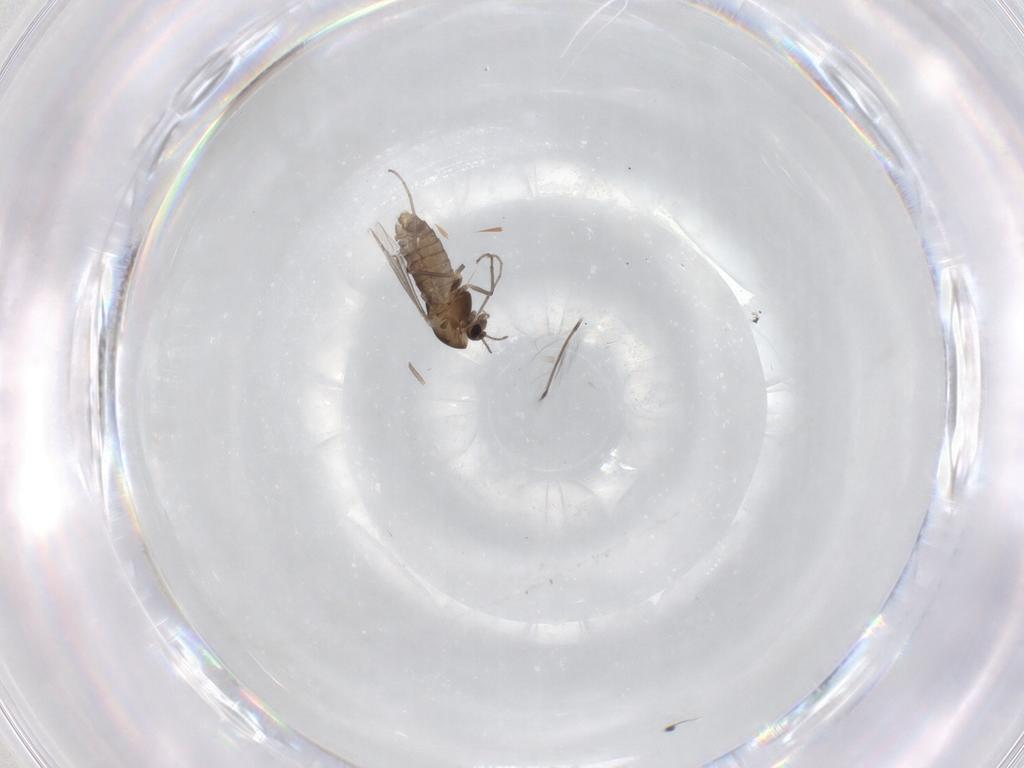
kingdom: Animalia
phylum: Arthropoda
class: Insecta
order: Diptera
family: Chironomidae
